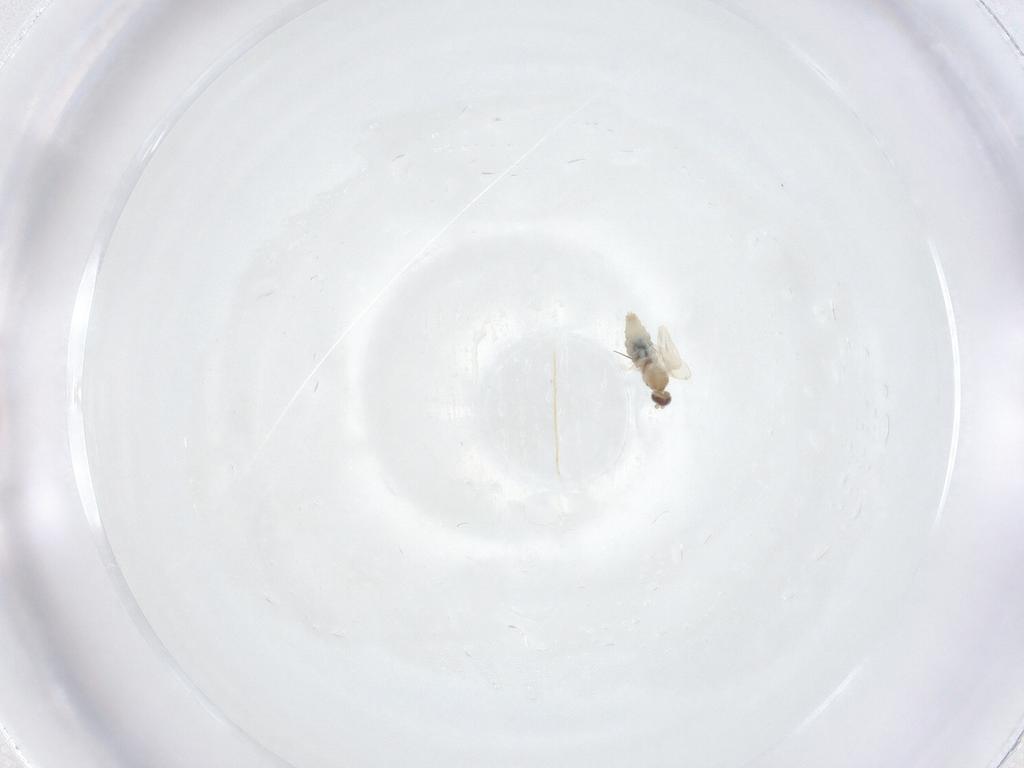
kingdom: Animalia
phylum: Arthropoda
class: Insecta
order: Diptera
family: Cecidomyiidae
